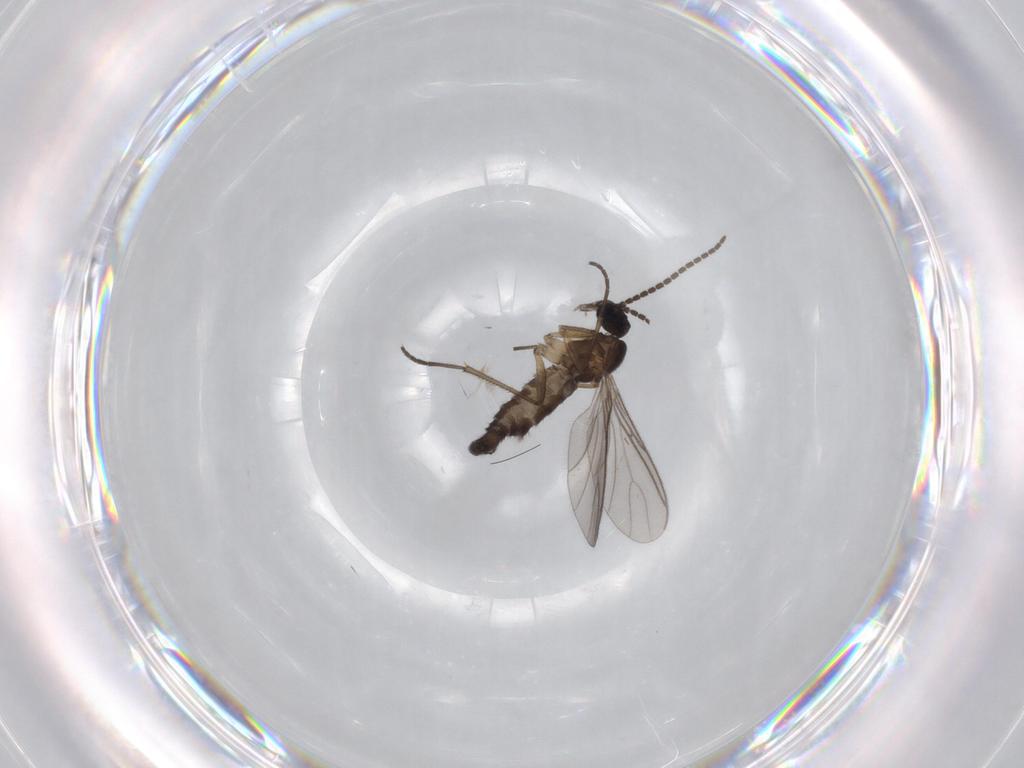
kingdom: Animalia
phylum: Arthropoda
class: Insecta
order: Diptera
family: Sciaridae
